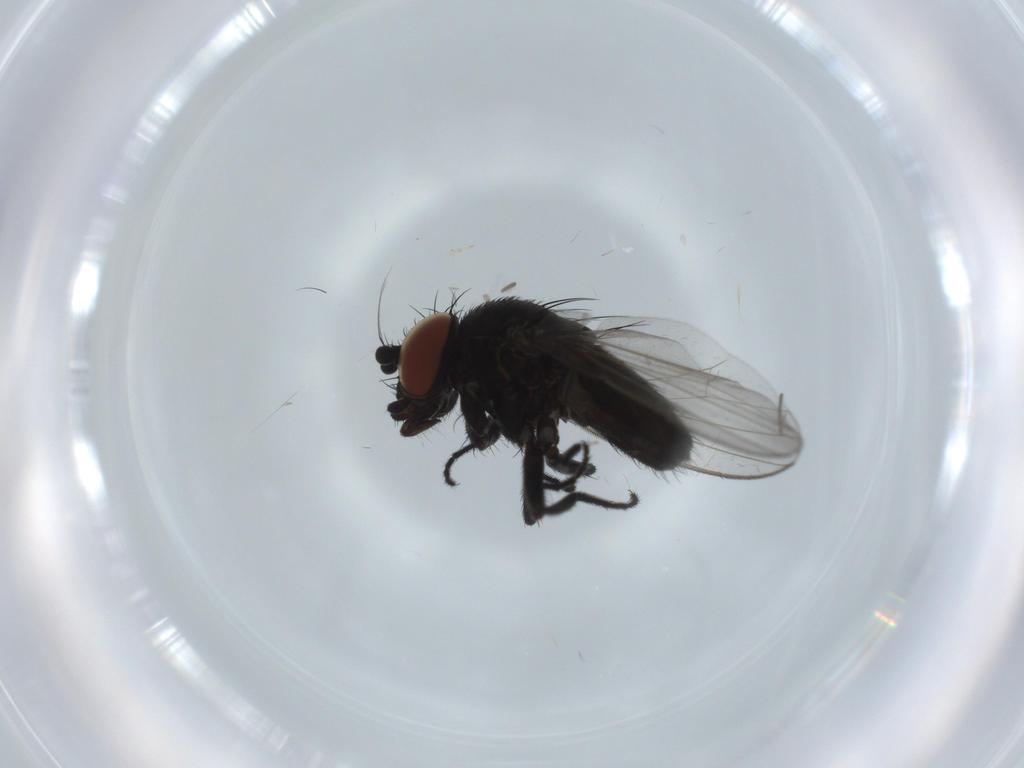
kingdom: Animalia
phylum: Arthropoda
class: Insecta
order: Diptera
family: Milichiidae
